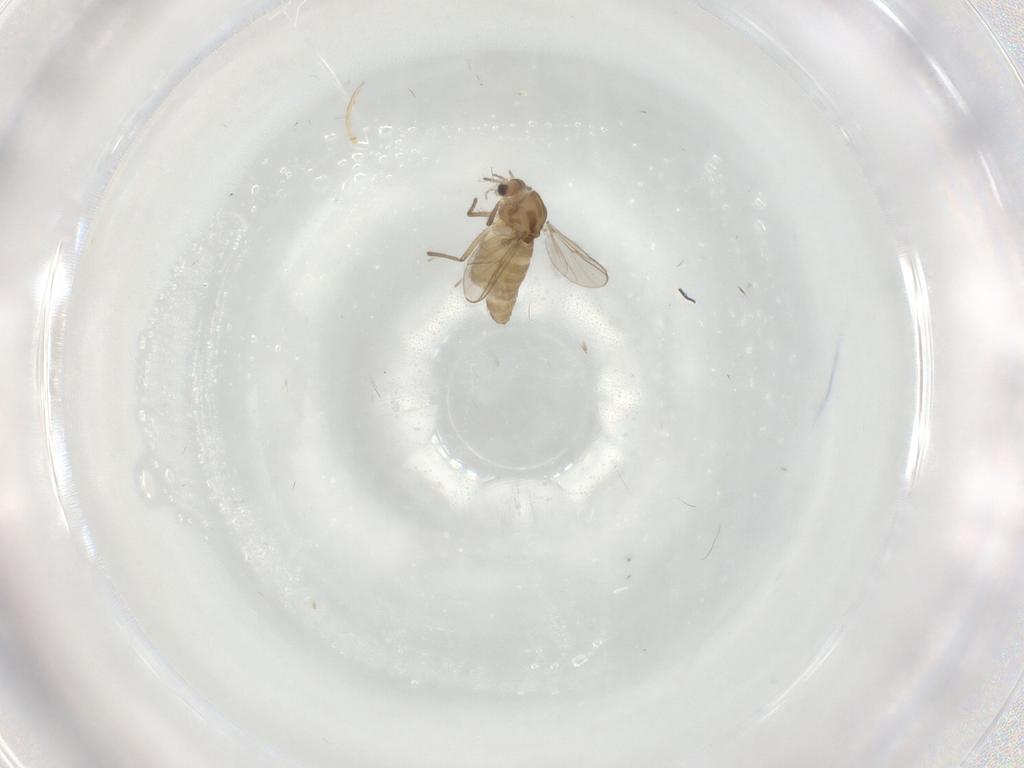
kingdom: Animalia
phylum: Arthropoda
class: Insecta
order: Diptera
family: Chironomidae
